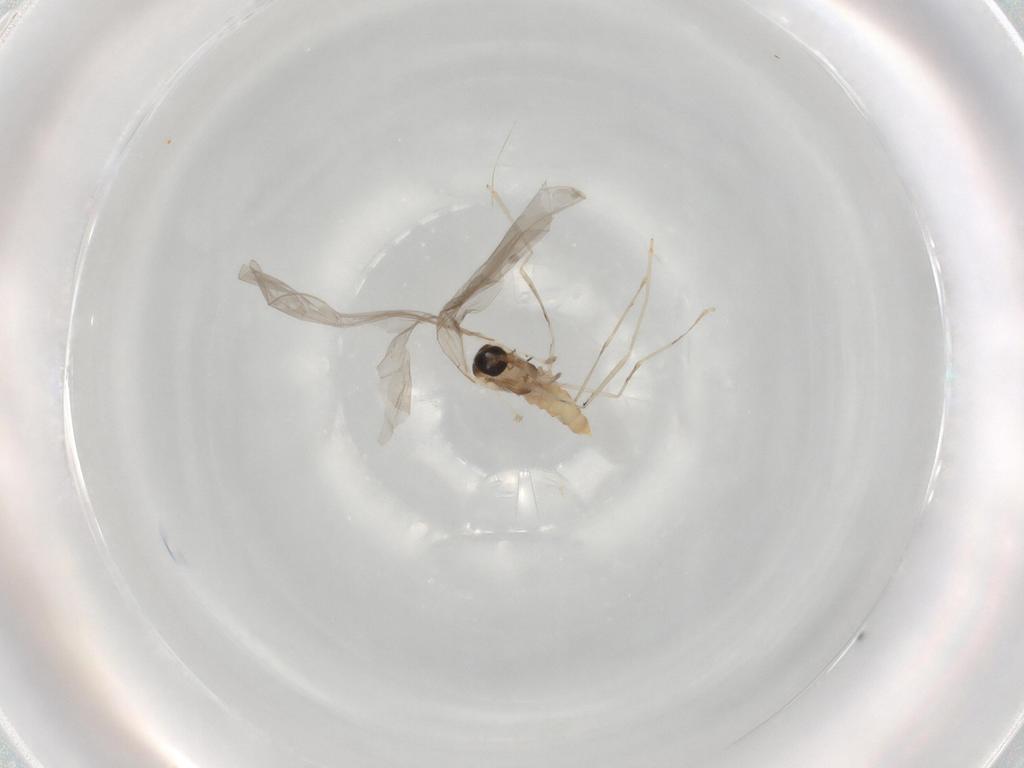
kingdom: Animalia
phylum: Arthropoda
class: Insecta
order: Diptera
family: Cecidomyiidae
